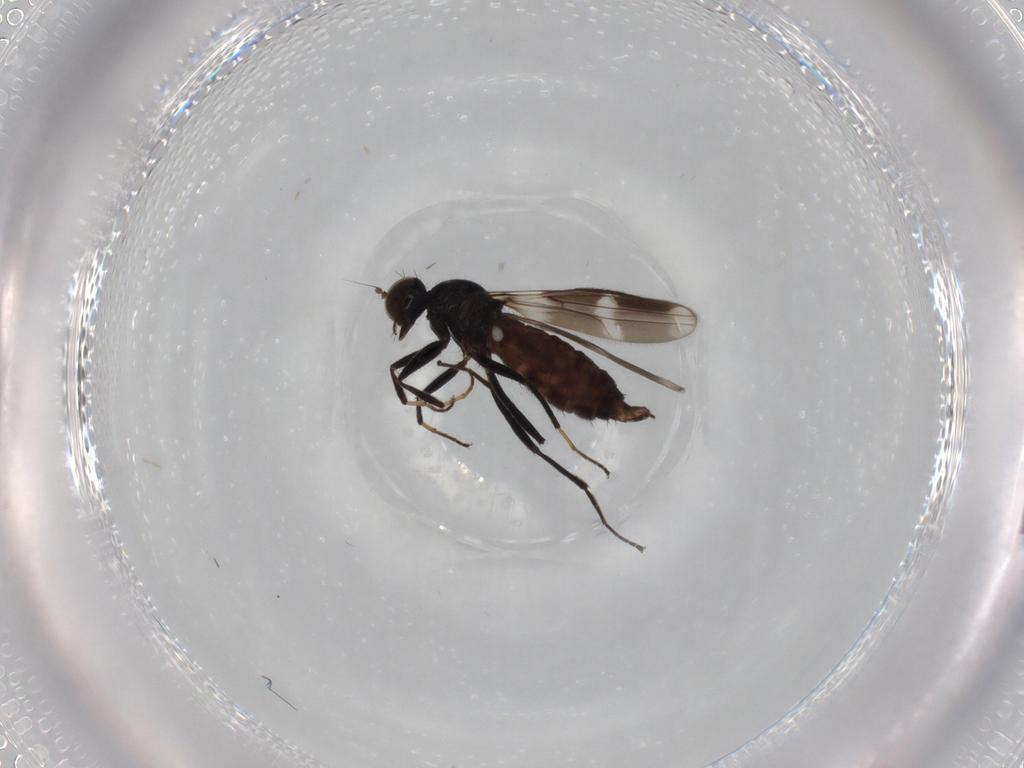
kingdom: Animalia
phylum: Arthropoda
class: Insecta
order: Diptera
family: Hybotidae
